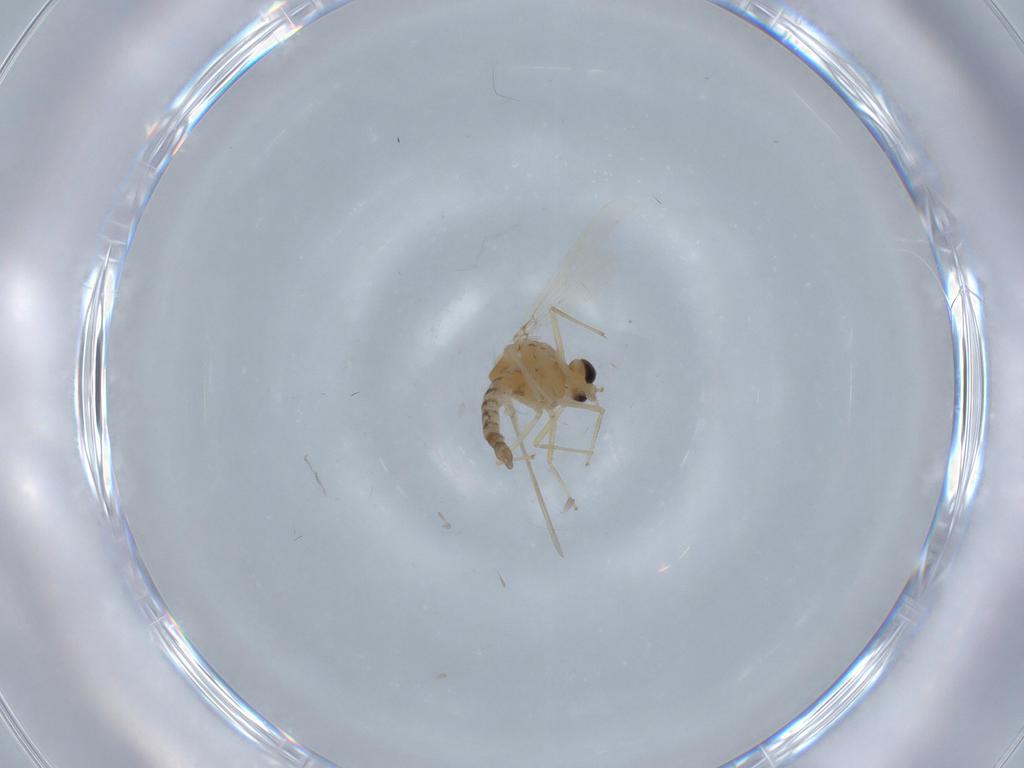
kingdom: Animalia
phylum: Arthropoda
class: Insecta
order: Diptera
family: Chironomidae
